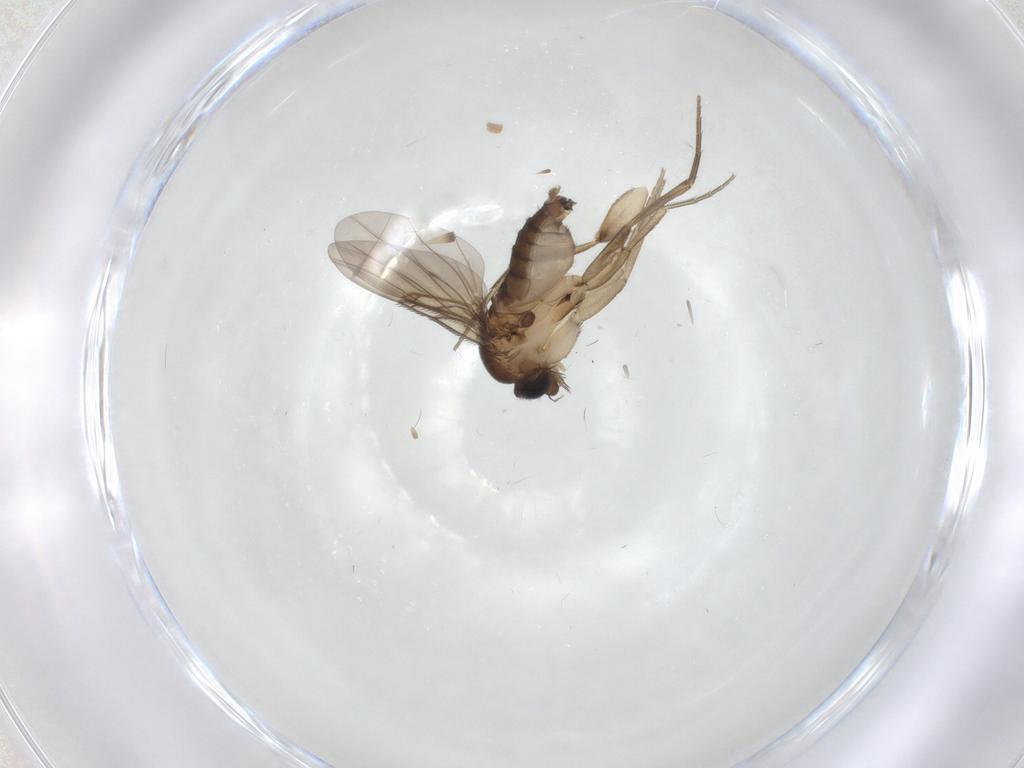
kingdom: Animalia
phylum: Arthropoda
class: Insecta
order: Diptera
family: Phoridae
